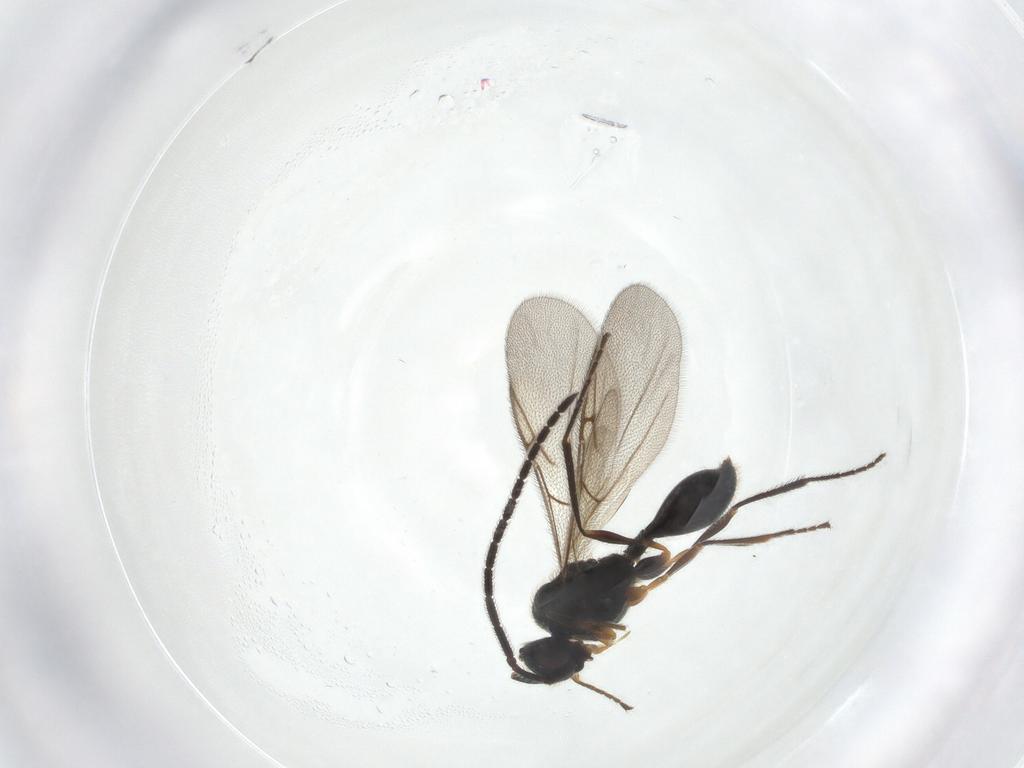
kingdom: Animalia
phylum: Arthropoda
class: Insecta
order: Hymenoptera
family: Diapriidae
